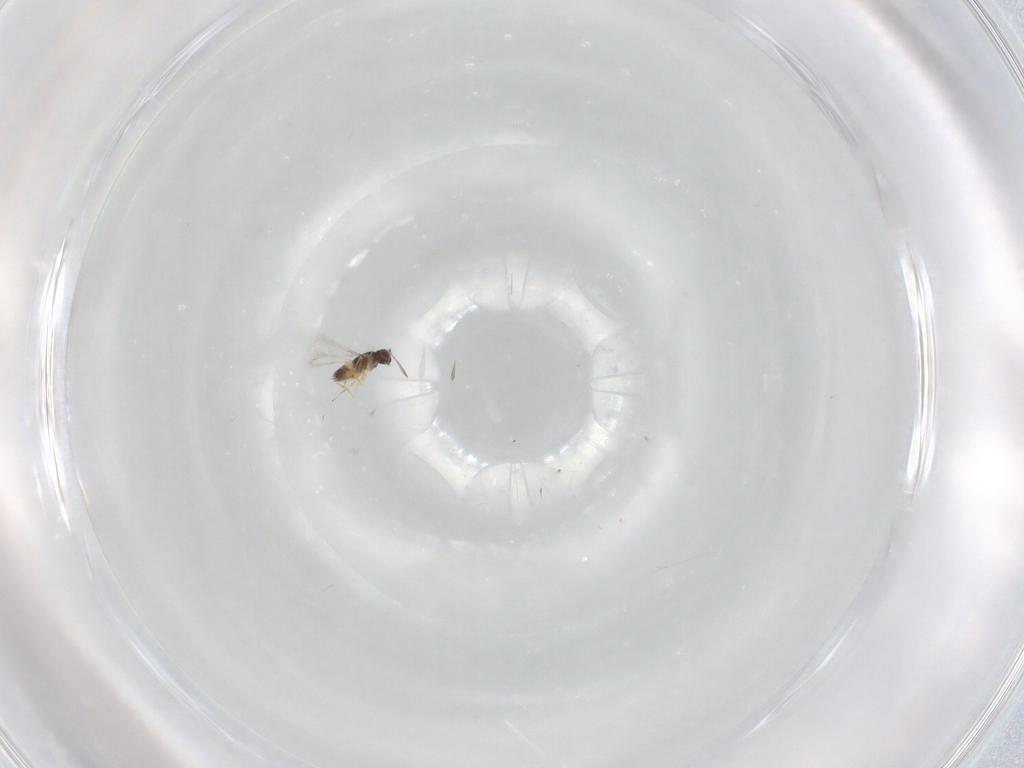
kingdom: Animalia
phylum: Arthropoda
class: Insecta
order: Hymenoptera
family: Mymaridae
